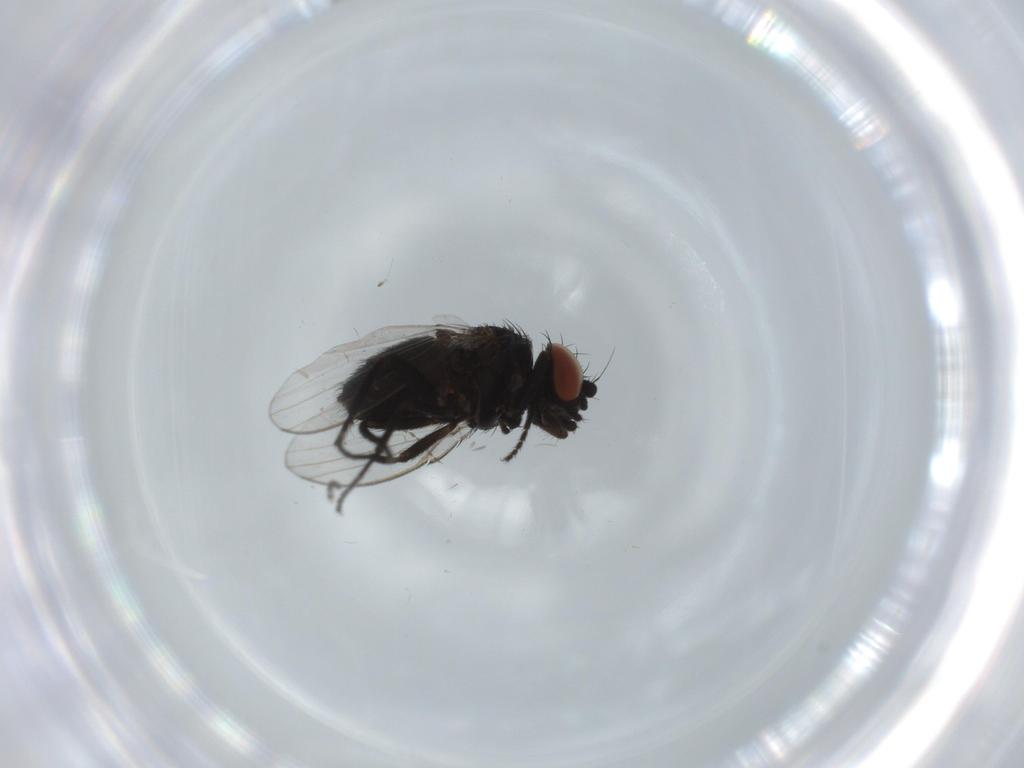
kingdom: Animalia
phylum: Arthropoda
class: Insecta
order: Diptera
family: Milichiidae
